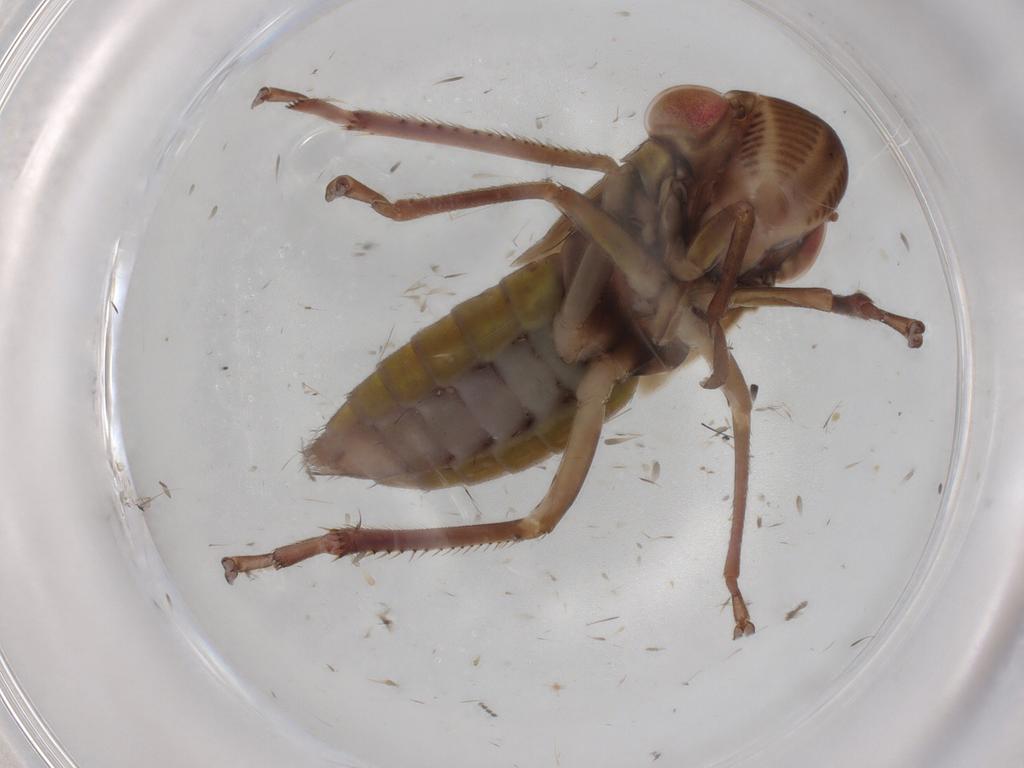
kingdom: Animalia
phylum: Arthropoda
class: Insecta
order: Hemiptera
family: Cicadellidae
